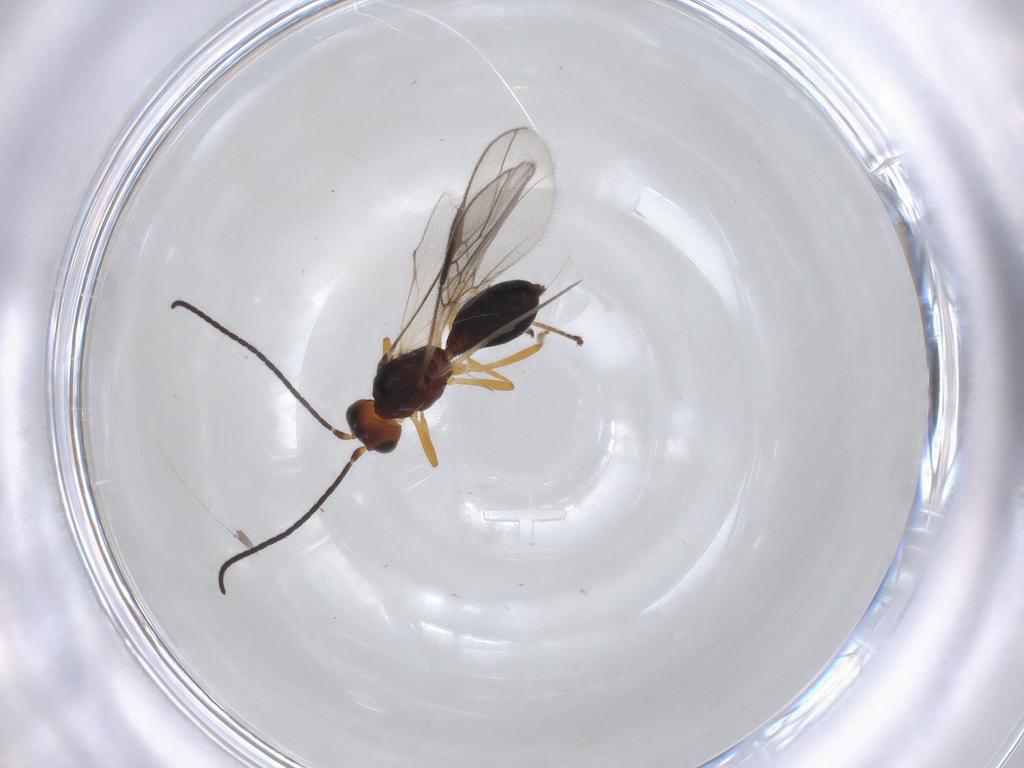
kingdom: Animalia
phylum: Arthropoda
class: Insecta
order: Hymenoptera
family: Braconidae
